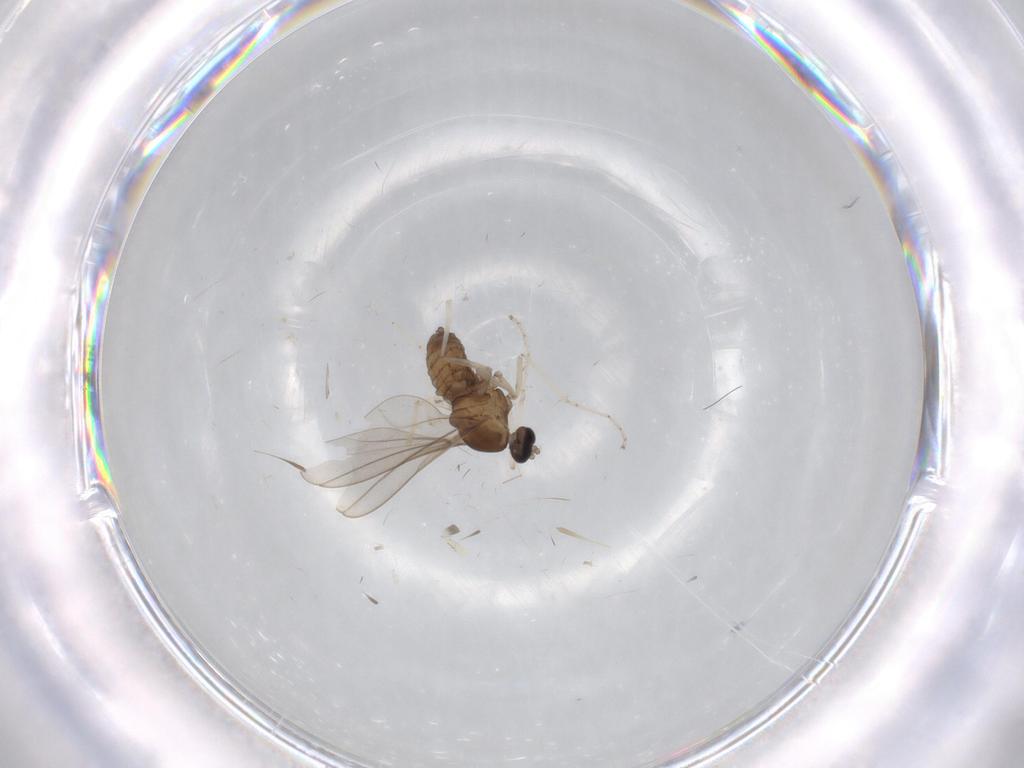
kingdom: Animalia
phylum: Arthropoda
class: Insecta
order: Diptera
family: Cecidomyiidae
